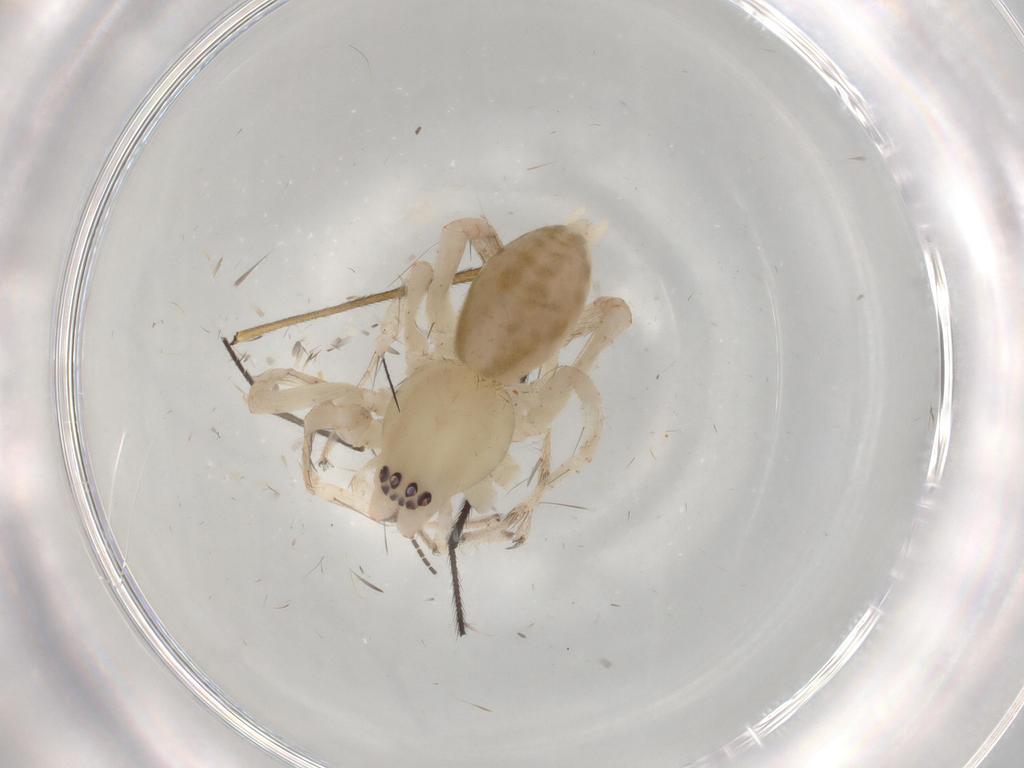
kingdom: Animalia
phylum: Arthropoda
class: Arachnida
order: Araneae
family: Anyphaenidae
